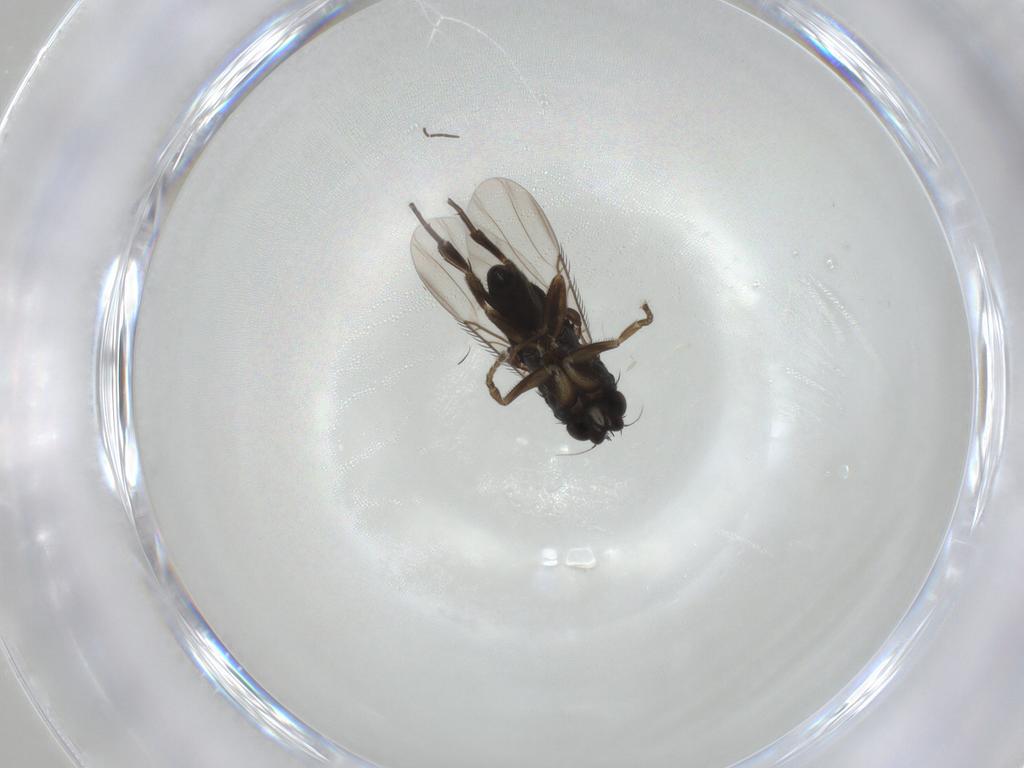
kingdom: Animalia
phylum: Arthropoda
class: Insecta
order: Diptera
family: Phoridae
